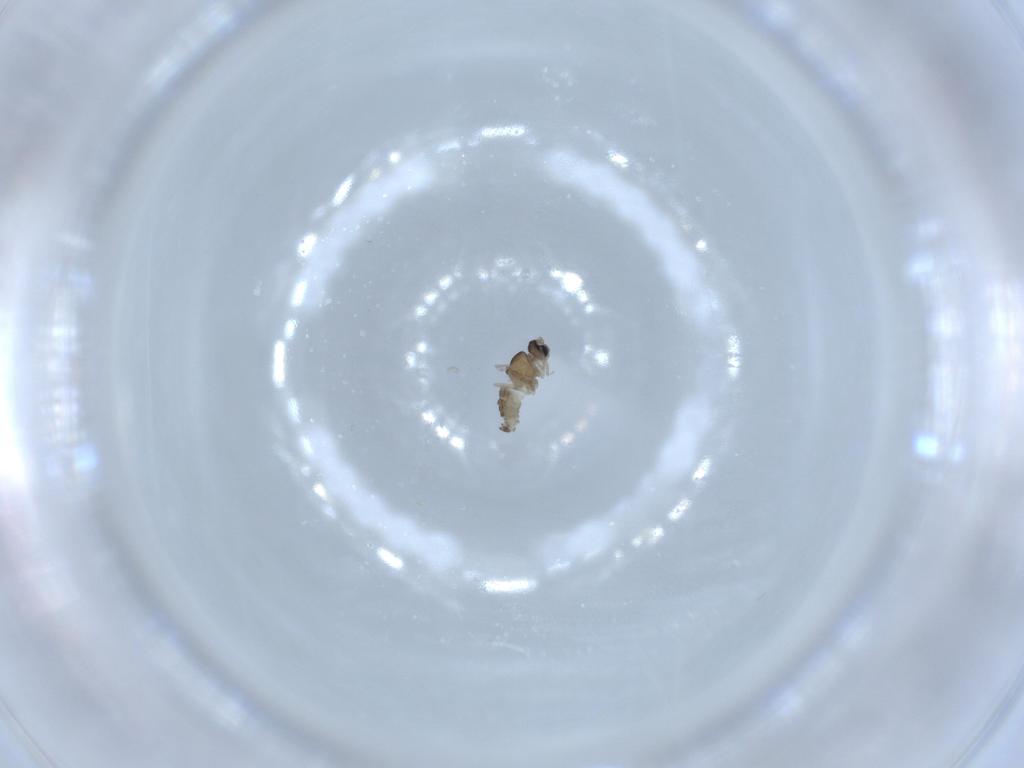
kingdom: Animalia
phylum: Arthropoda
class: Insecta
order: Diptera
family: Cecidomyiidae
